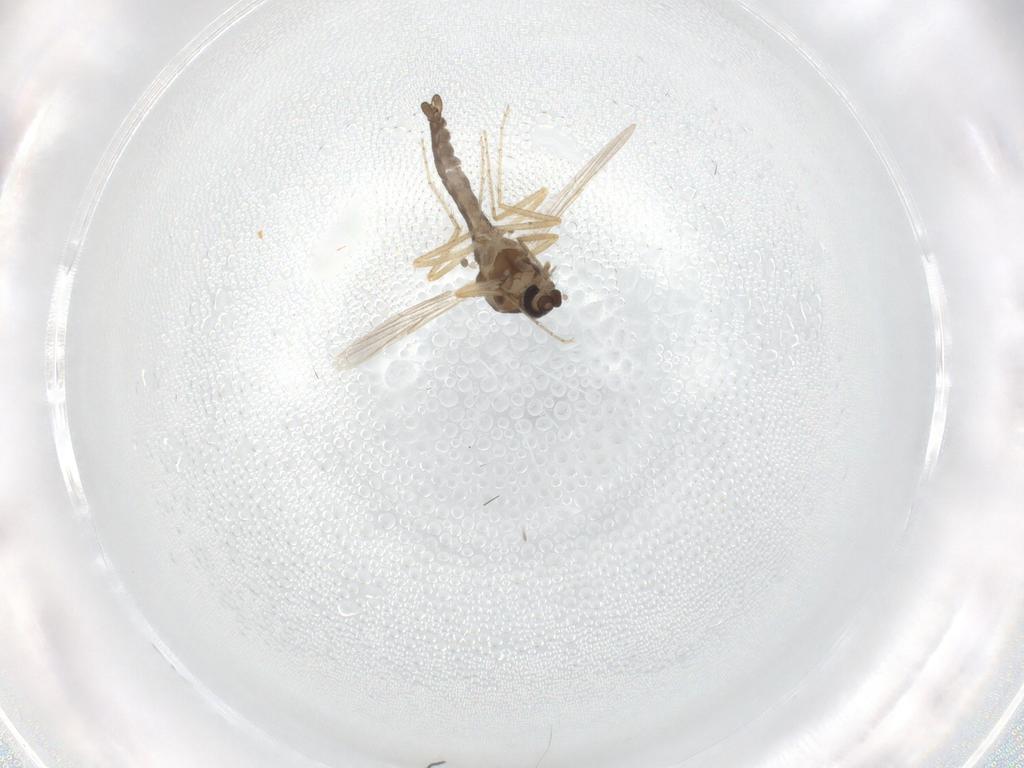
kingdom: Animalia
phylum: Arthropoda
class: Insecta
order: Diptera
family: Ceratopogonidae
